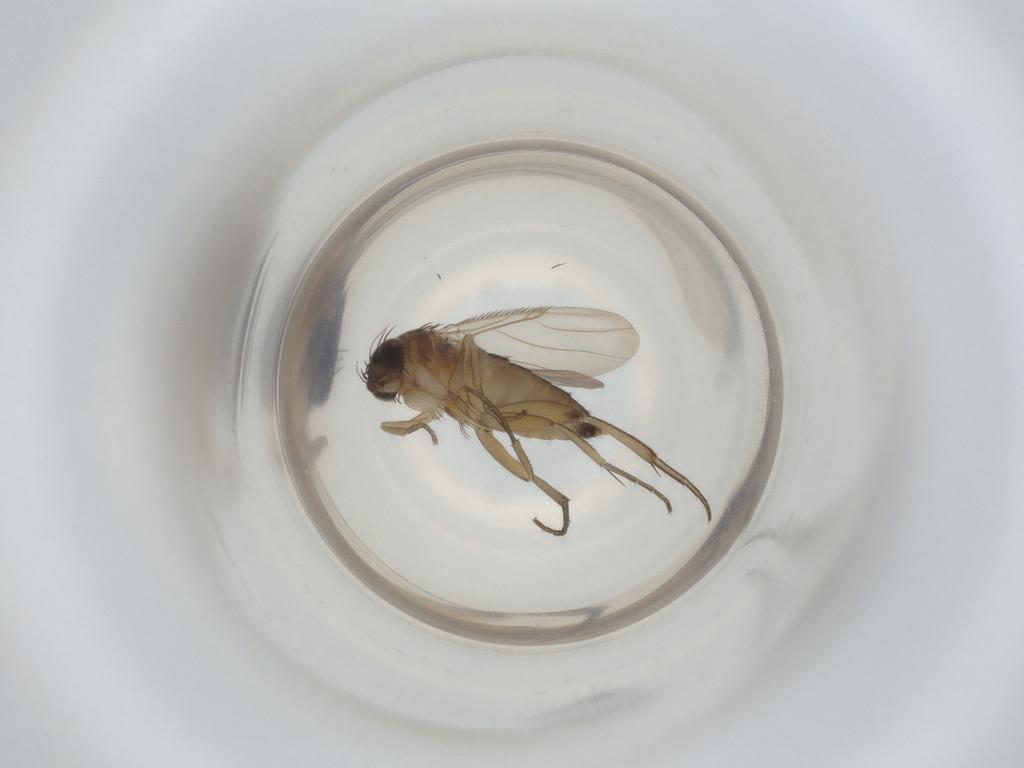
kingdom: Animalia
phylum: Arthropoda
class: Insecta
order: Diptera
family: Phoridae
